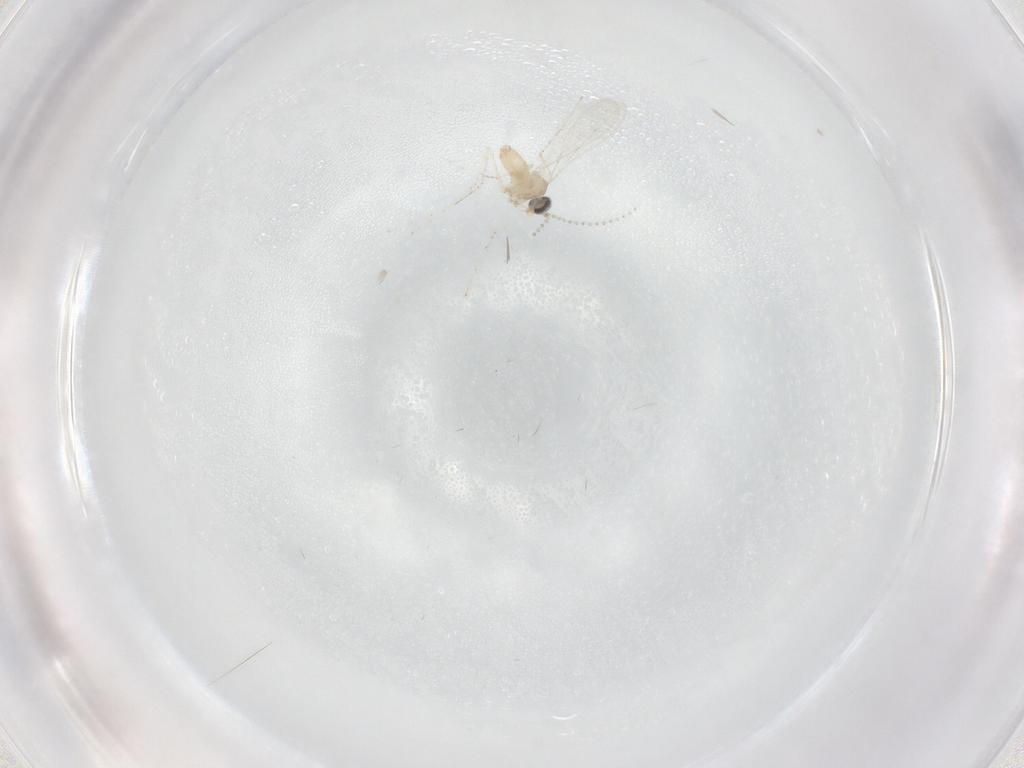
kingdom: Animalia
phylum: Arthropoda
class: Insecta
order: Diptera
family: Cecidomyiidae
